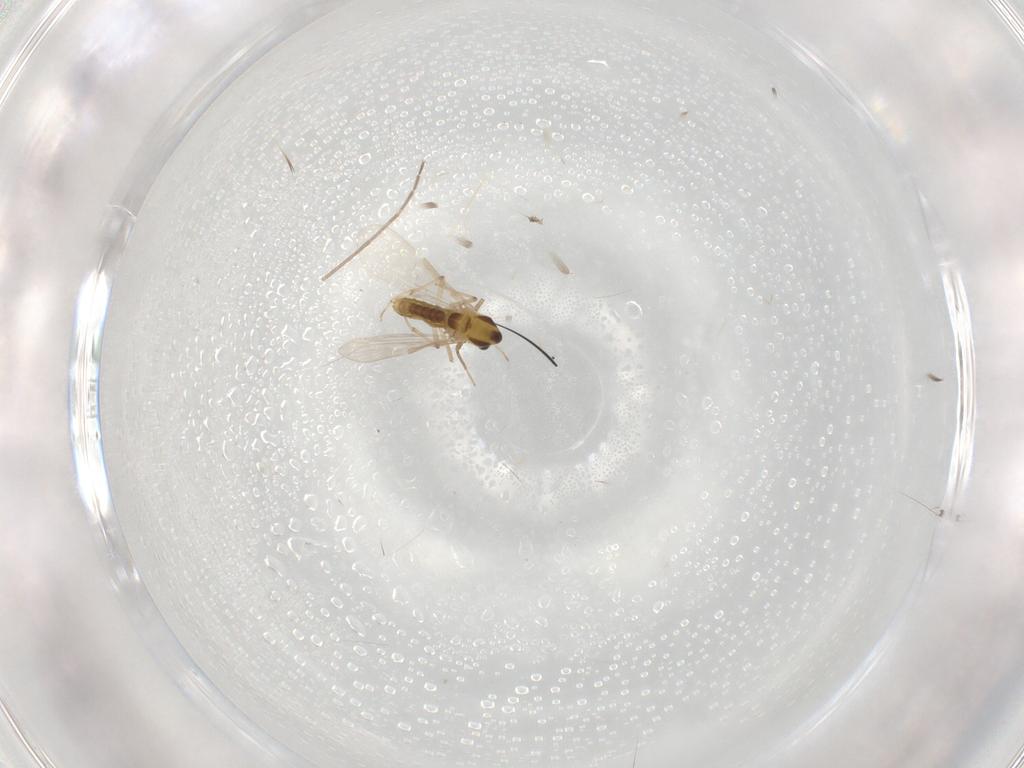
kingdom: Animalia
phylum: Arthropoda
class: Insecta
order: Diptera
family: Chironomidae
